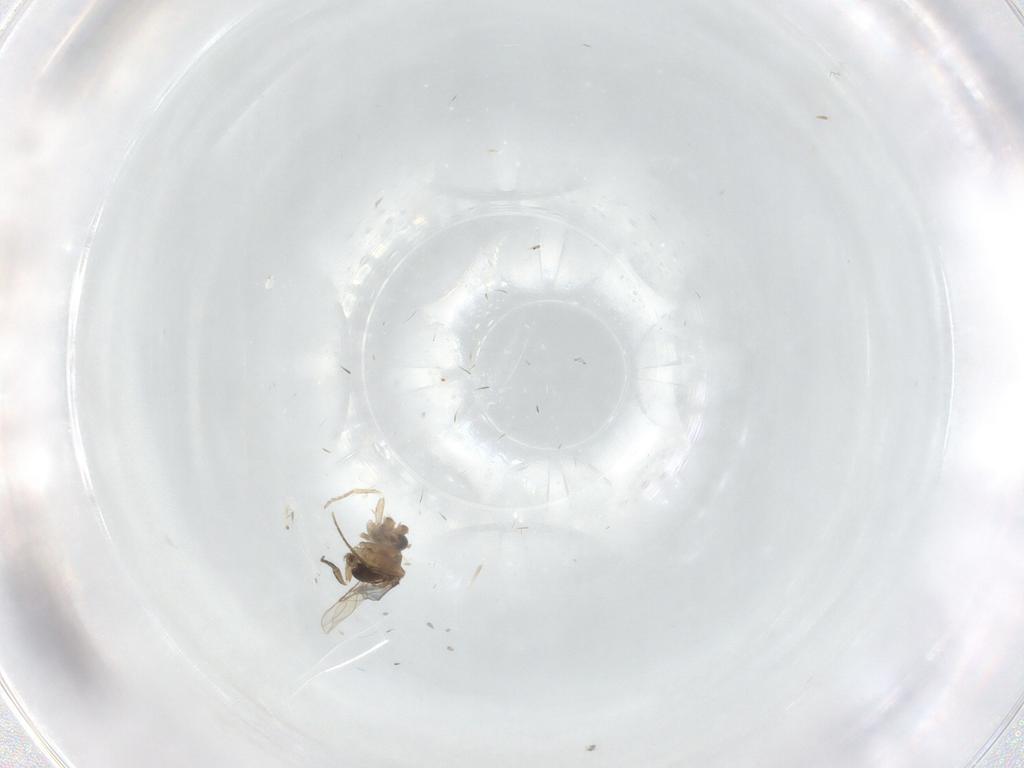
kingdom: Animalia
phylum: Arthropoda
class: Insecta
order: Diptera
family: Phoridae
